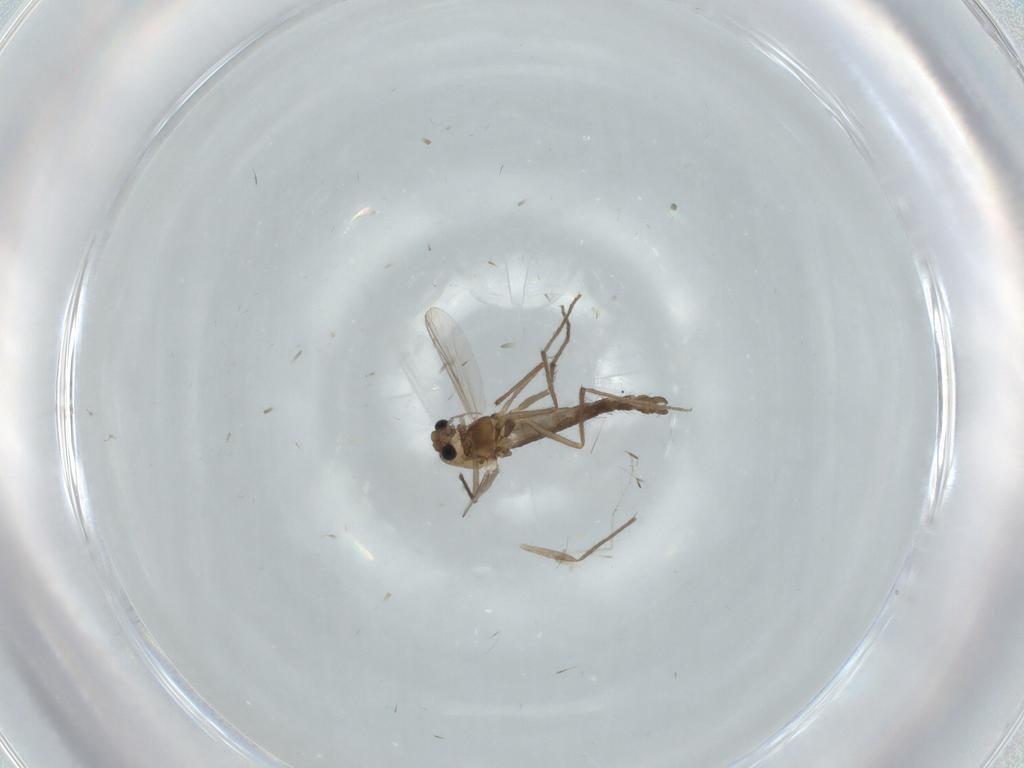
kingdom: Animalia
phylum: Arthropoda
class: Insecta
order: Diptera
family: Chironomidae
